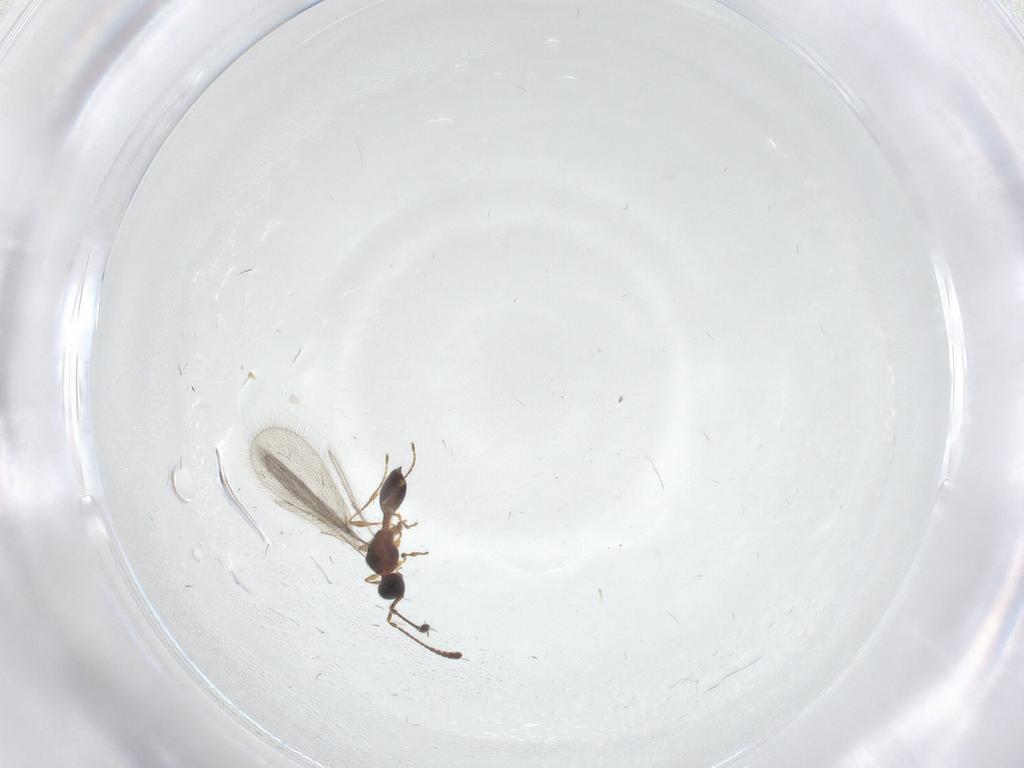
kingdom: Animalia
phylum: Arthropoda
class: Insecta
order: Hymenoptera
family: Diapriidae
